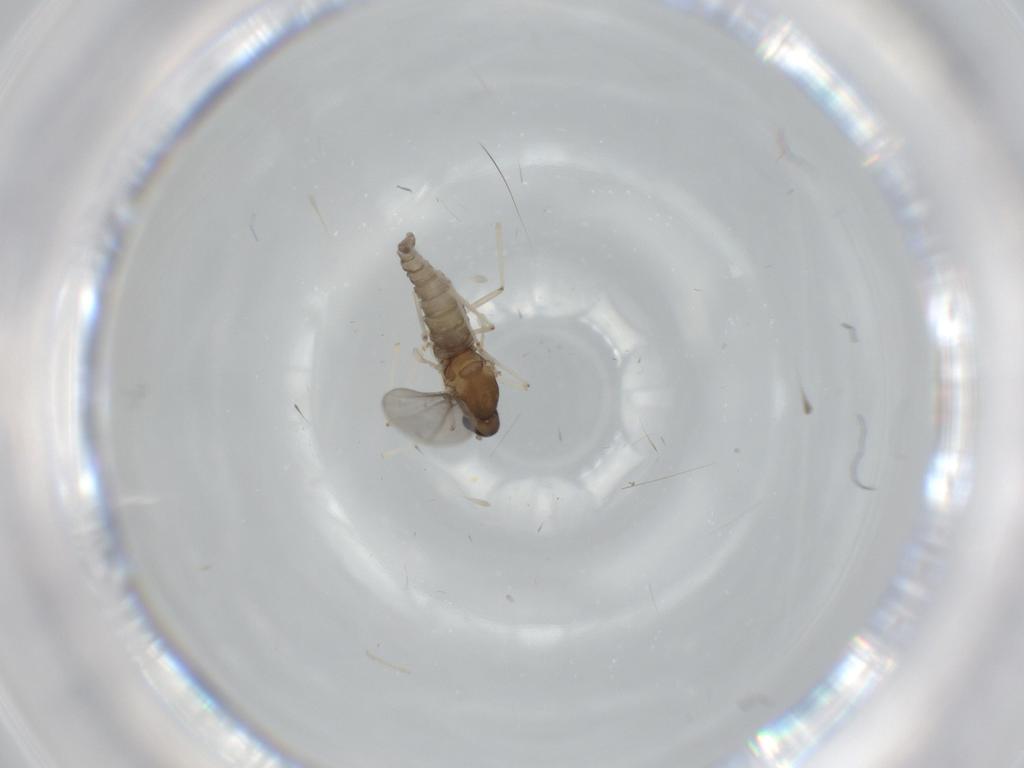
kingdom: Animalia
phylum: Arthropoda
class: Insecta
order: Diptera
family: Cecidomyiidae
